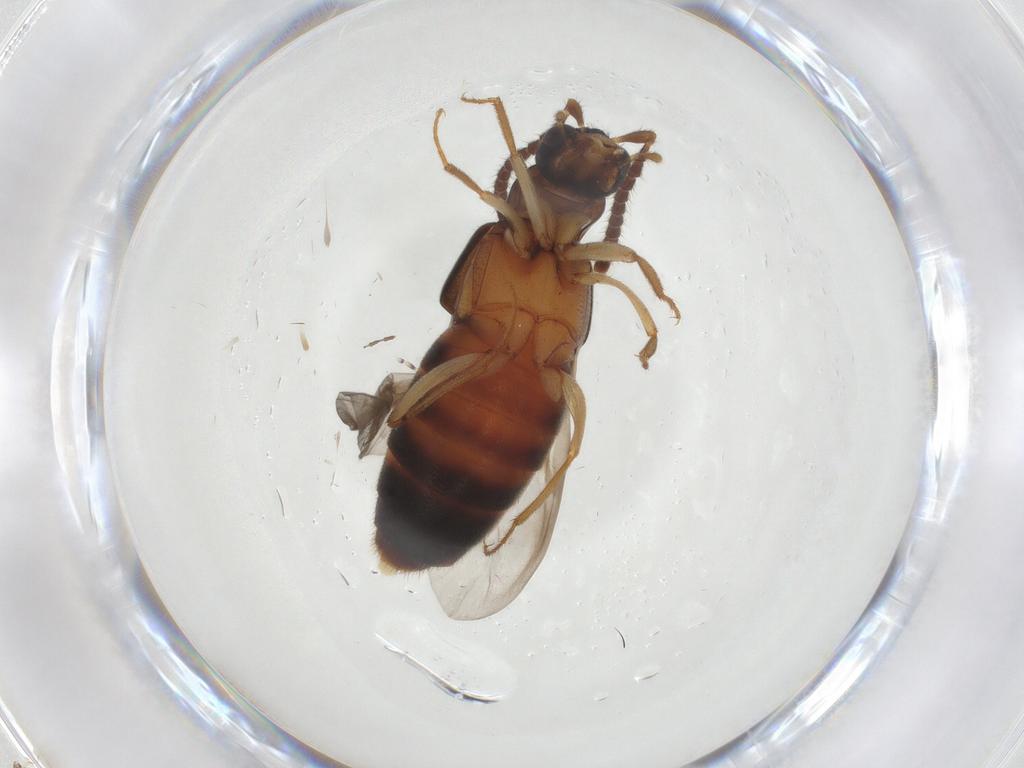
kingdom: Animalia
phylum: Arthropoda
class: Insecta
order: Coleoptera
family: Staphylinidae
